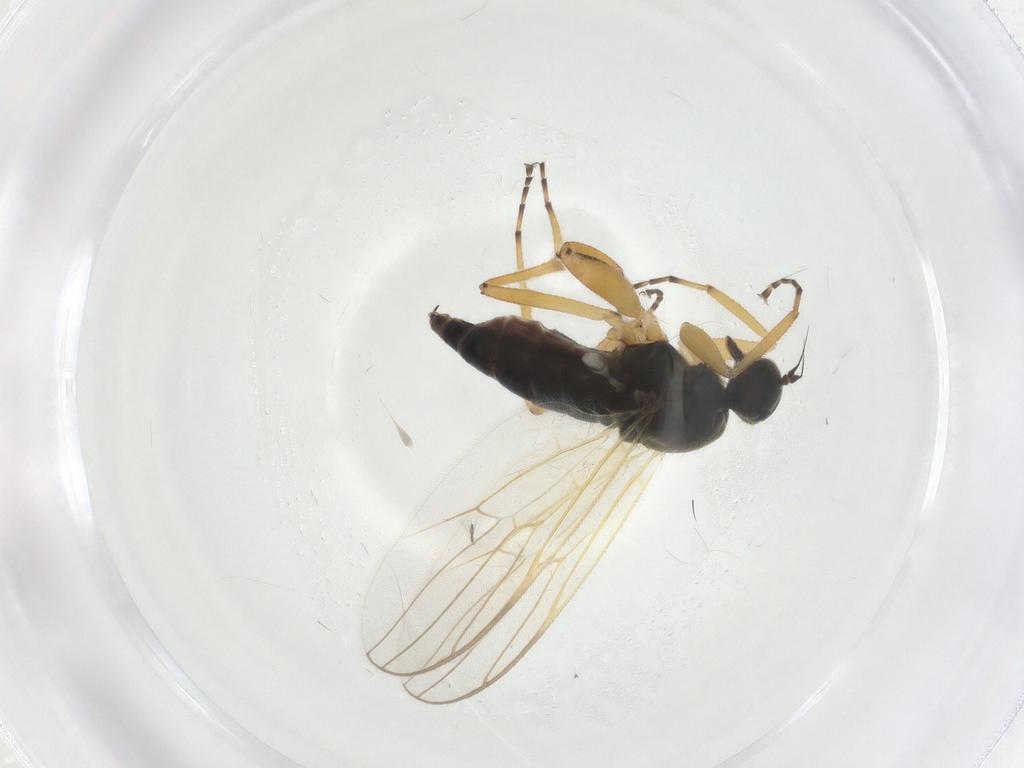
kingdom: Animalia
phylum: Arthropoda
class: Insecta
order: Diptera
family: Hybotidae
